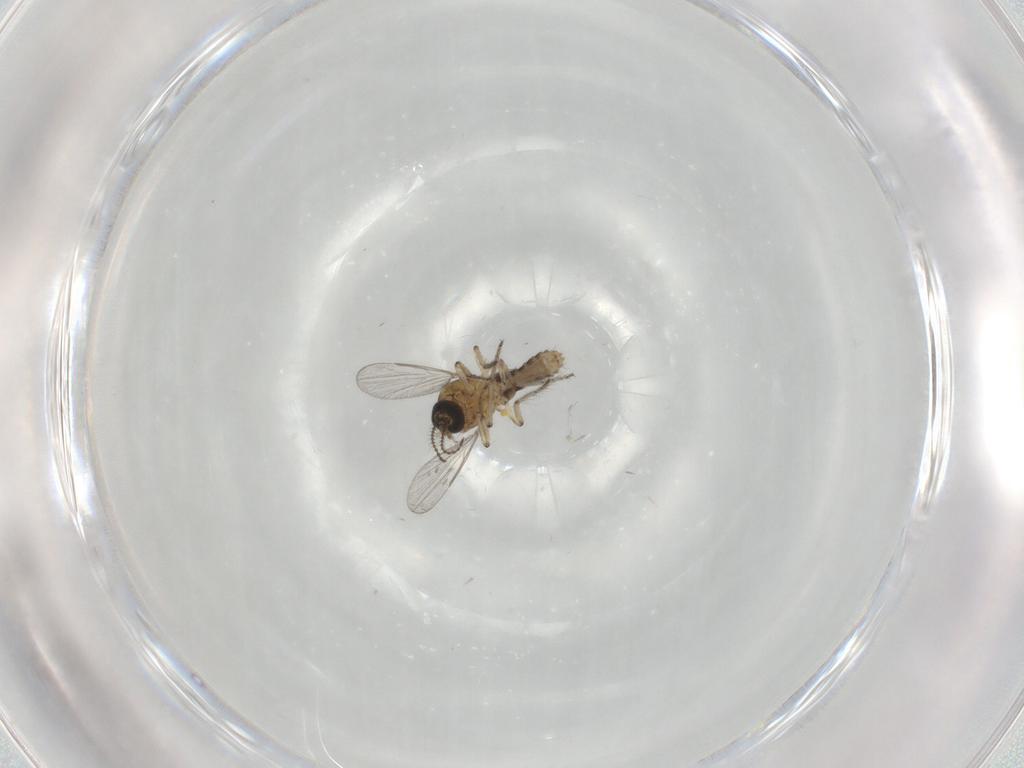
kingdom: Animalia
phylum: Arthropoda
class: Insecta
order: Diptera
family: Ceratopogonidae
